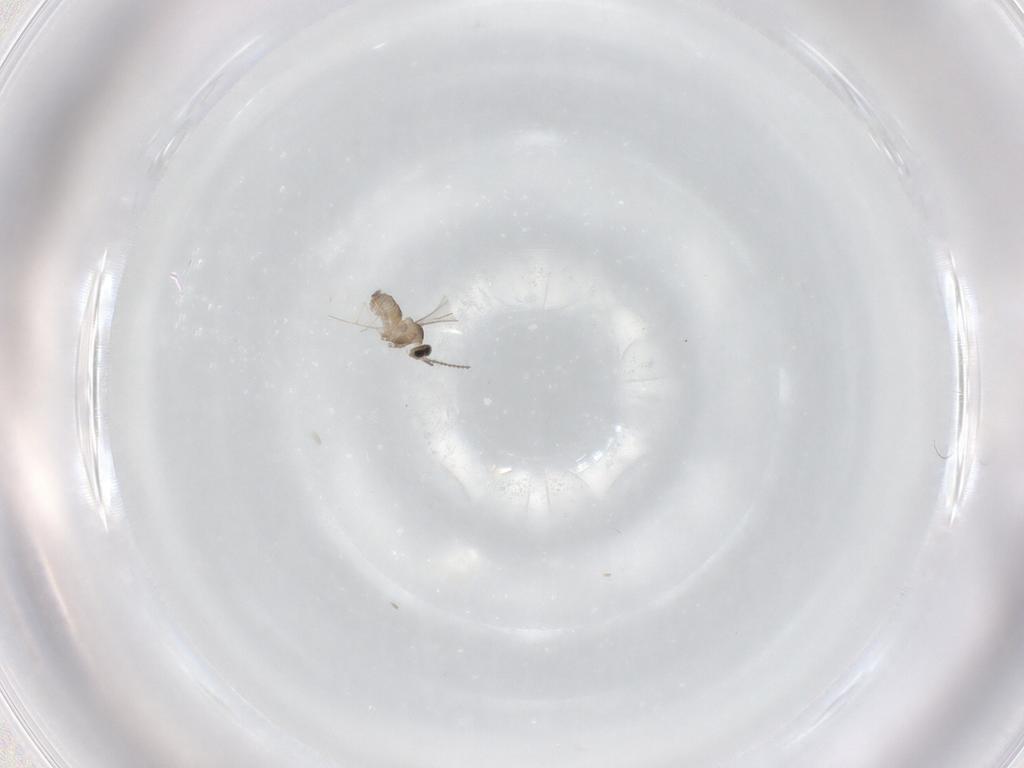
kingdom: Animalia
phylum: Arthropoda
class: Insecta
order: Diptera
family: Cecidomyiidae
